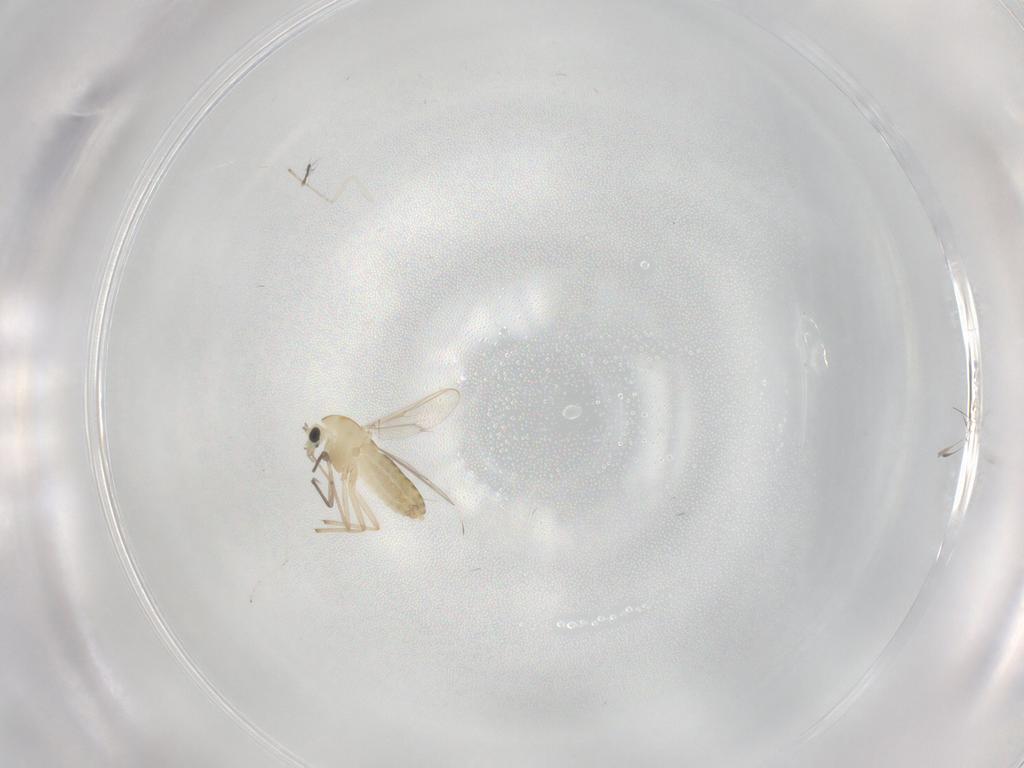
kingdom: Animalia
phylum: Arthropoda
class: Insecta
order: Diptera
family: Chironomidae
